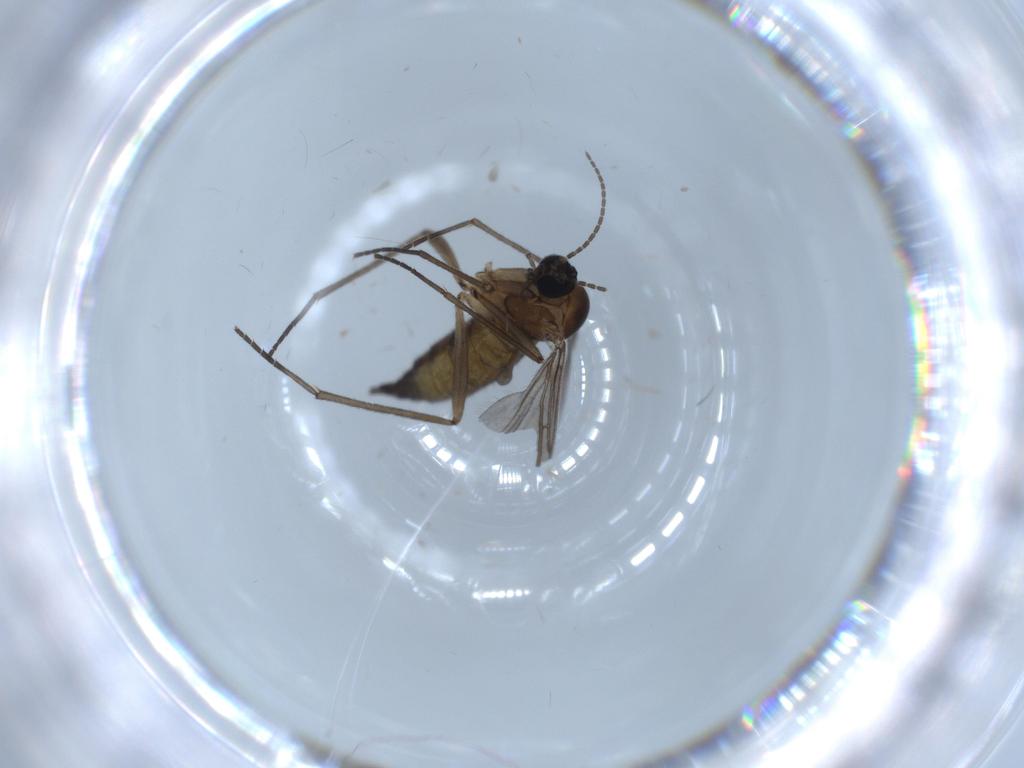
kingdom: Animalia
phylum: Arthropoda
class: Insecta
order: Diptera
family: Sciaridae
